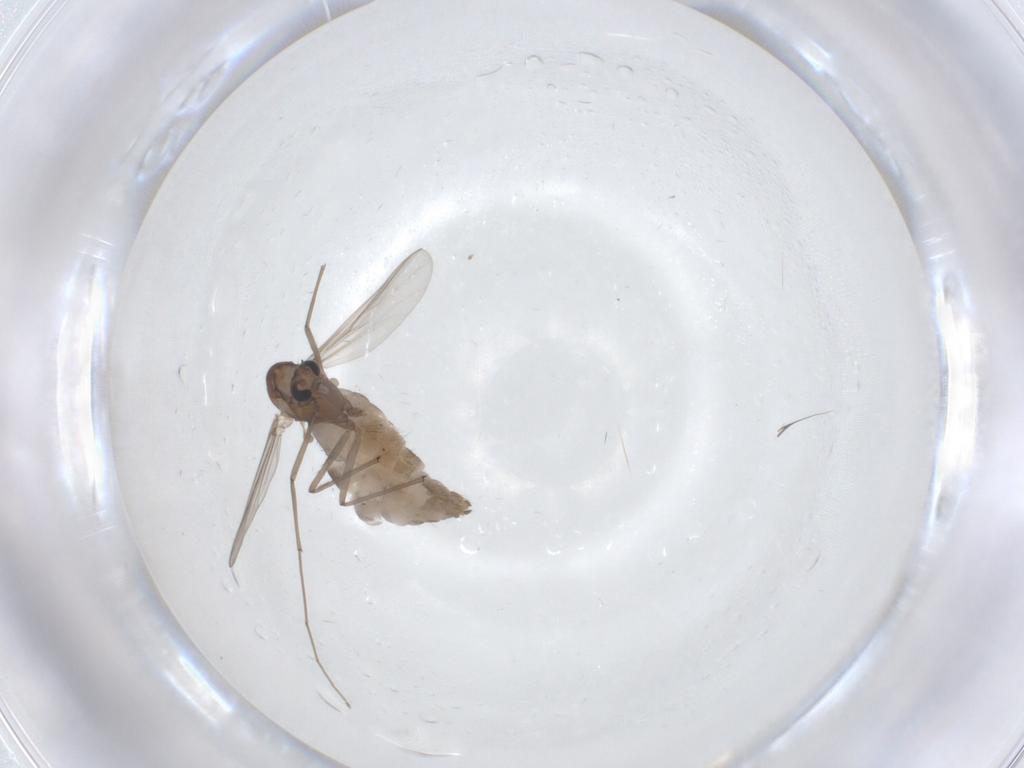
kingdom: Animalia
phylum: Arthropoda
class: Insecta
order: Diptera
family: Chironomidae
